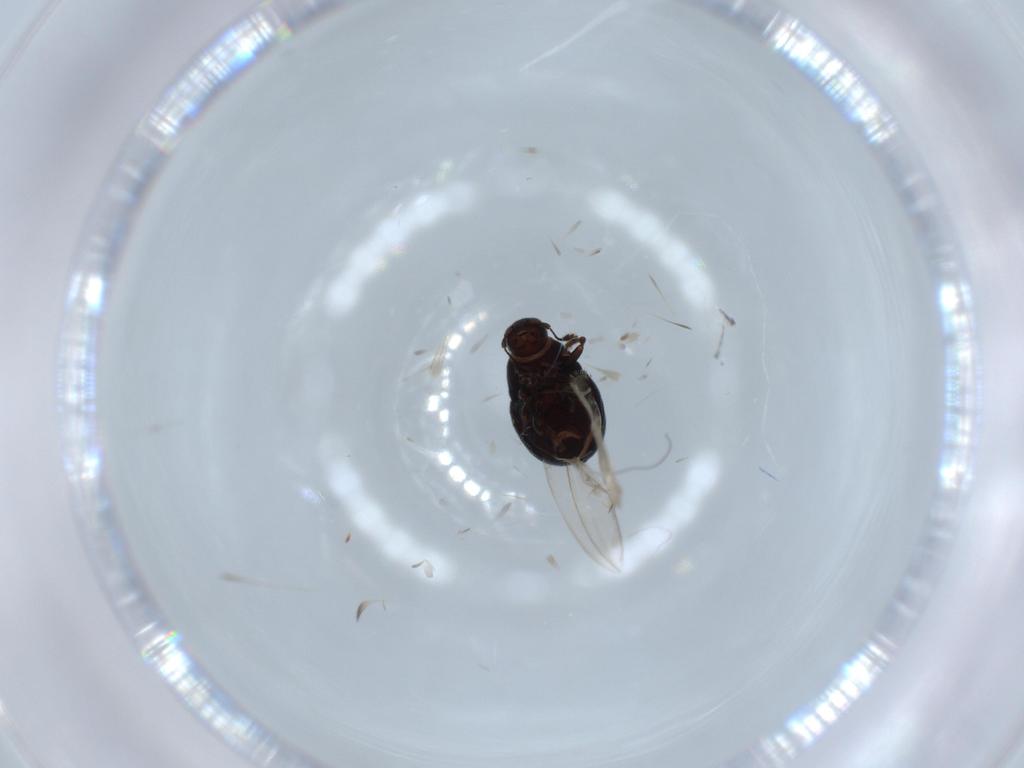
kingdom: Animalia
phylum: Arthropoda
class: Insecta
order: Coleoptera
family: Anthribidae
